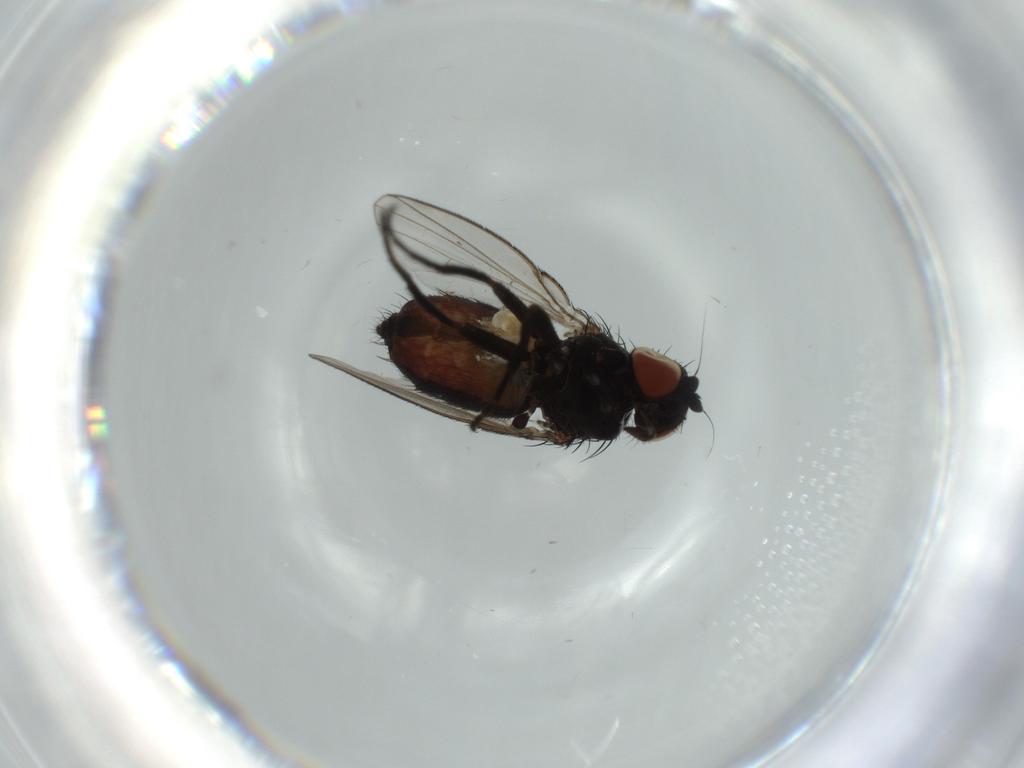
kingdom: Animalia
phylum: Arthropoda
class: Insecta
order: Diptera
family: Milichiidae
